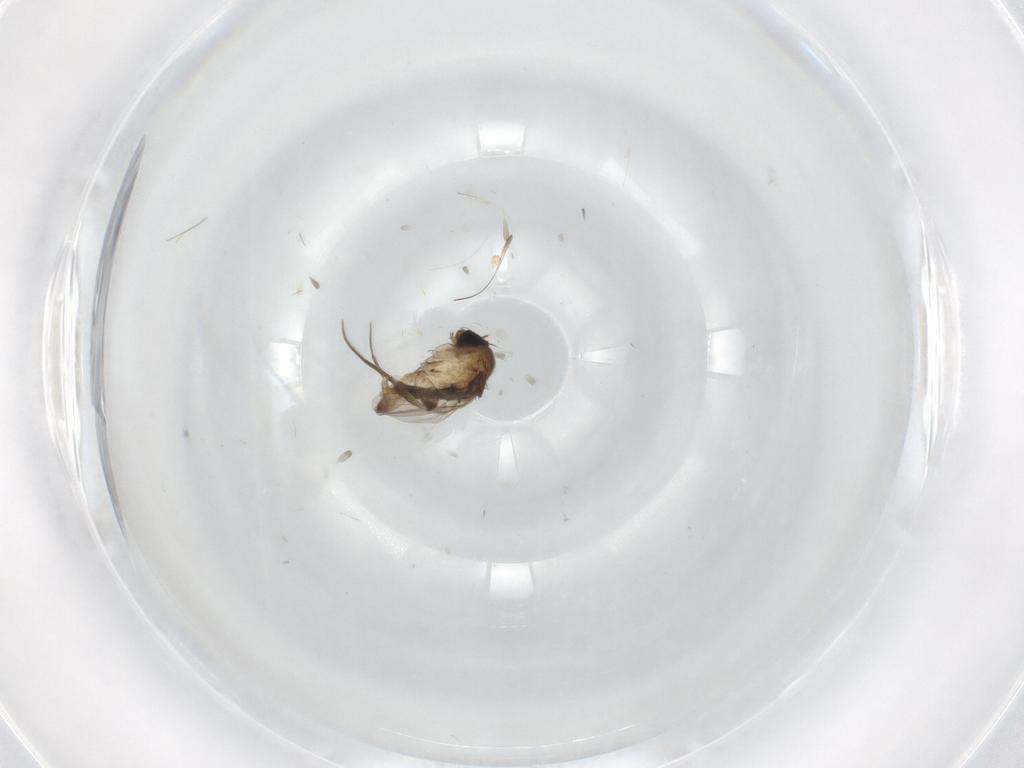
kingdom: Animalia
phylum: Arthropoda
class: Insecta
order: Diptera
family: Phoridae
